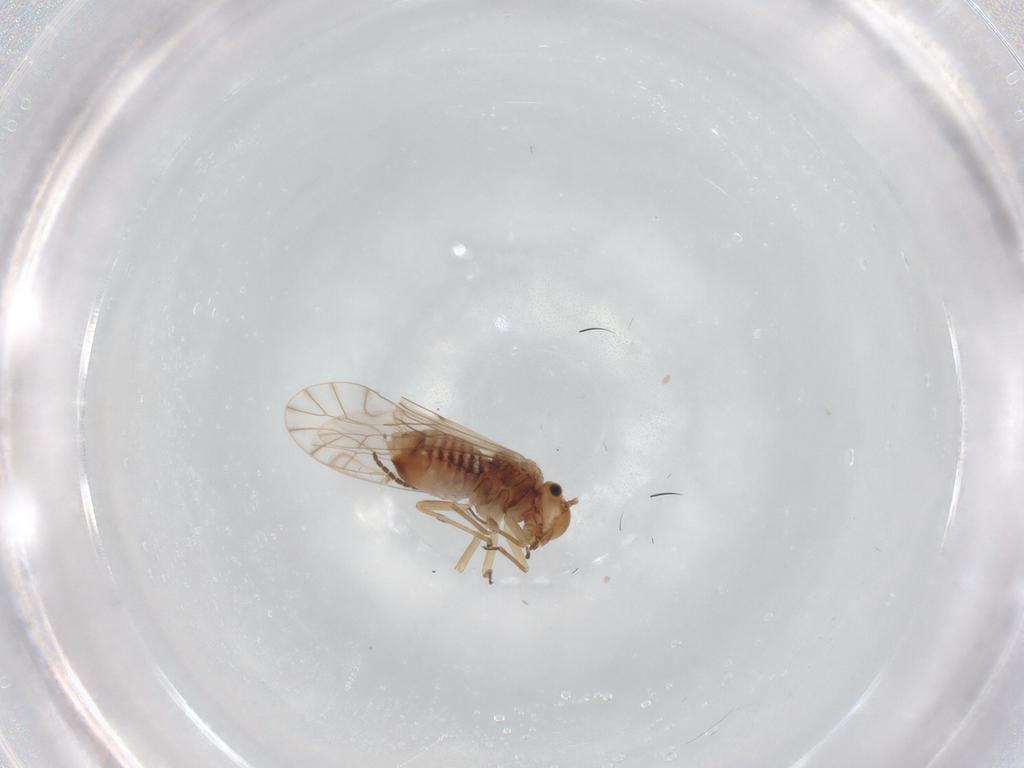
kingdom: Animalia
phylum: Arthropoda
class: Insecta
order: Psocodea
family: Lachesillidae
